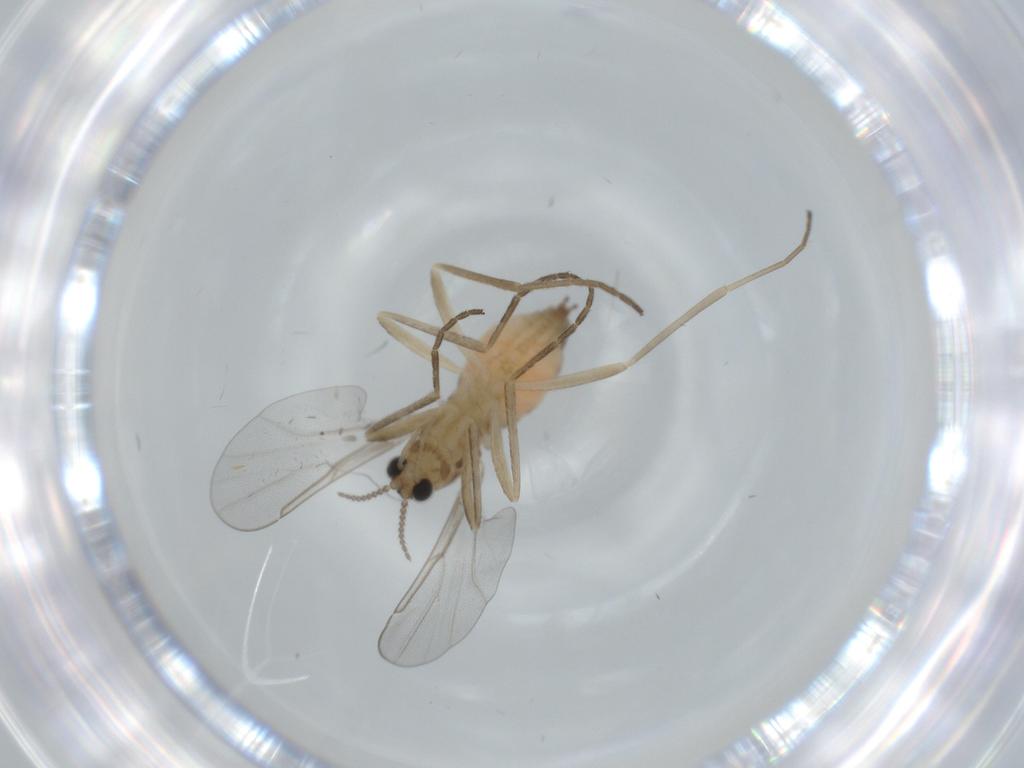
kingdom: Animalia
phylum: Arthropoda
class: Insecta
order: Diptera
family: Cecidomyiidae
